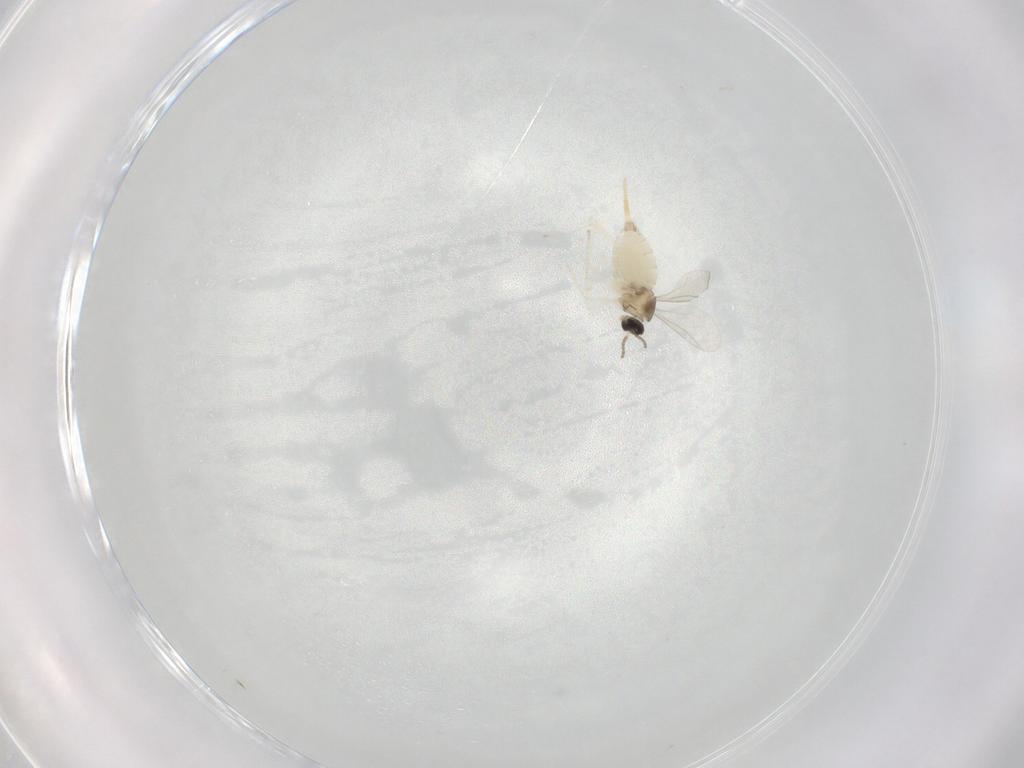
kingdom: Animalia
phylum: Arthropoda
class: Insecta
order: Diptera
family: Cecidomyiidae
